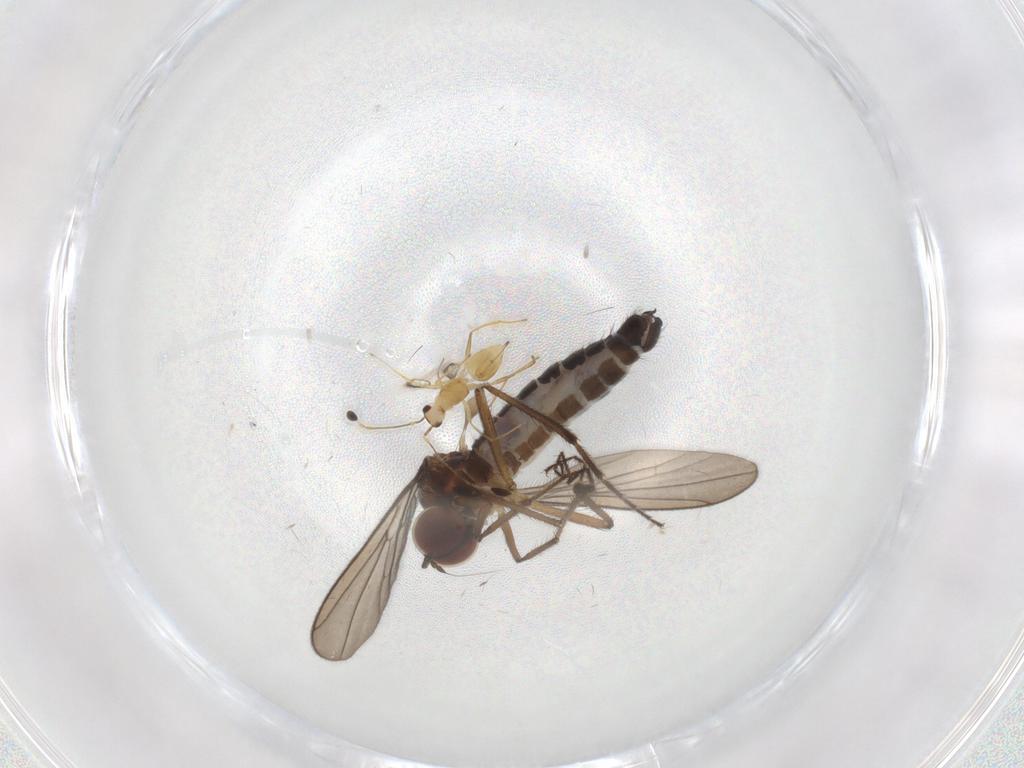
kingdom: Animalia
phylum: Arthropoda
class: Insecta
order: Diptera
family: Hybotidae
